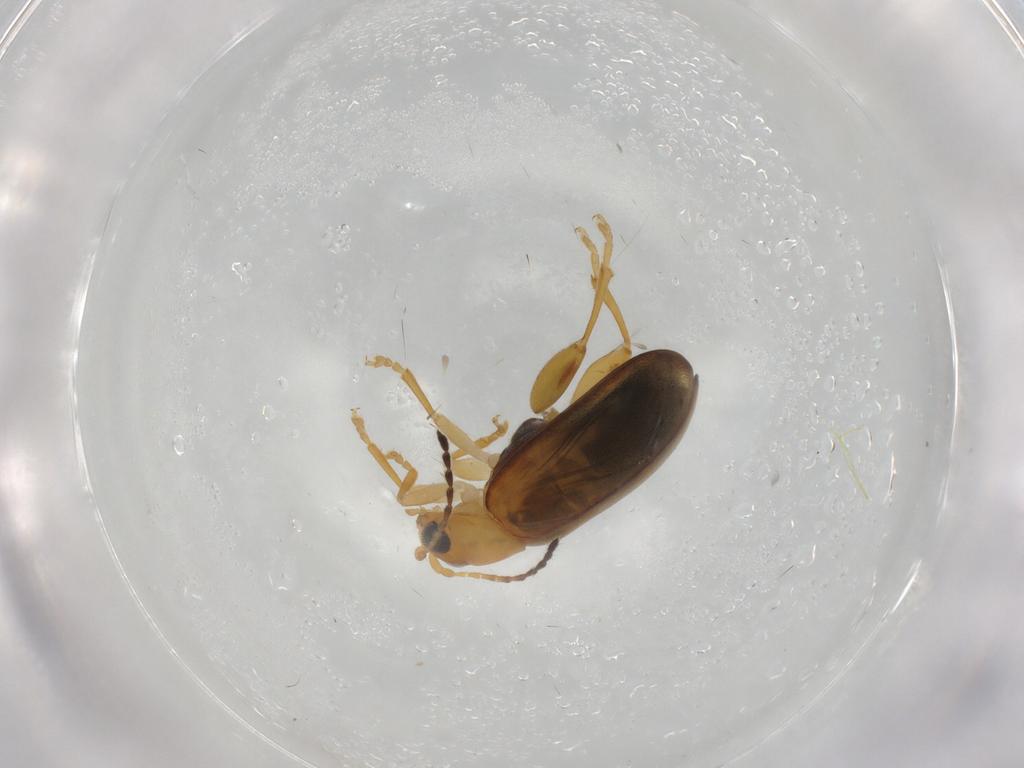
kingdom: Animalia
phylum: Arthropoda
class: Insecta
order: Coleoptera
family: Chrysomelidae
